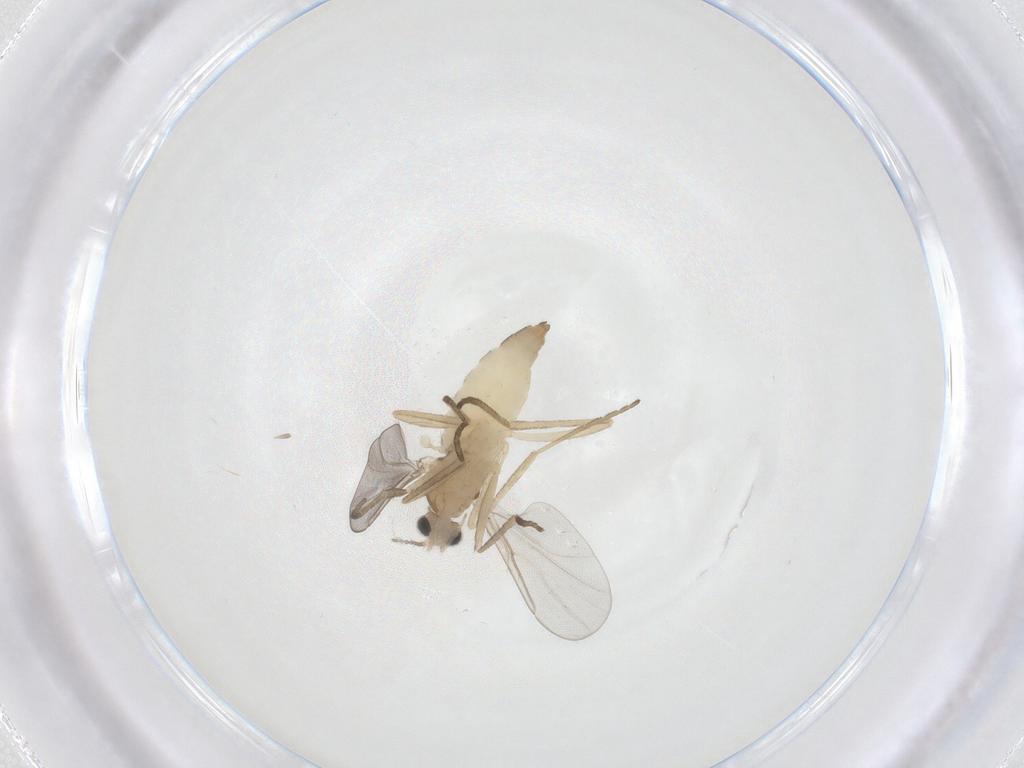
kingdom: Animalia
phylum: Arthropoda
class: Insecta
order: Diptera
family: Cecidomyiidae
